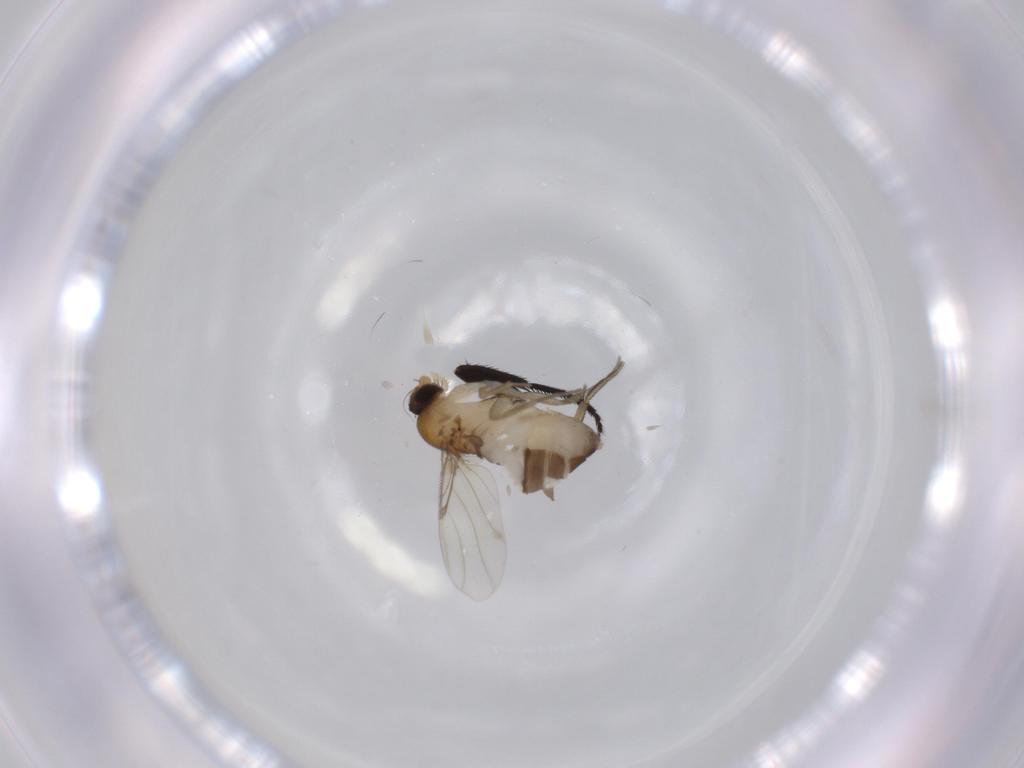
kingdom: Animalia
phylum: Arthropoda
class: Insecta
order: Diptera
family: Phoridae
